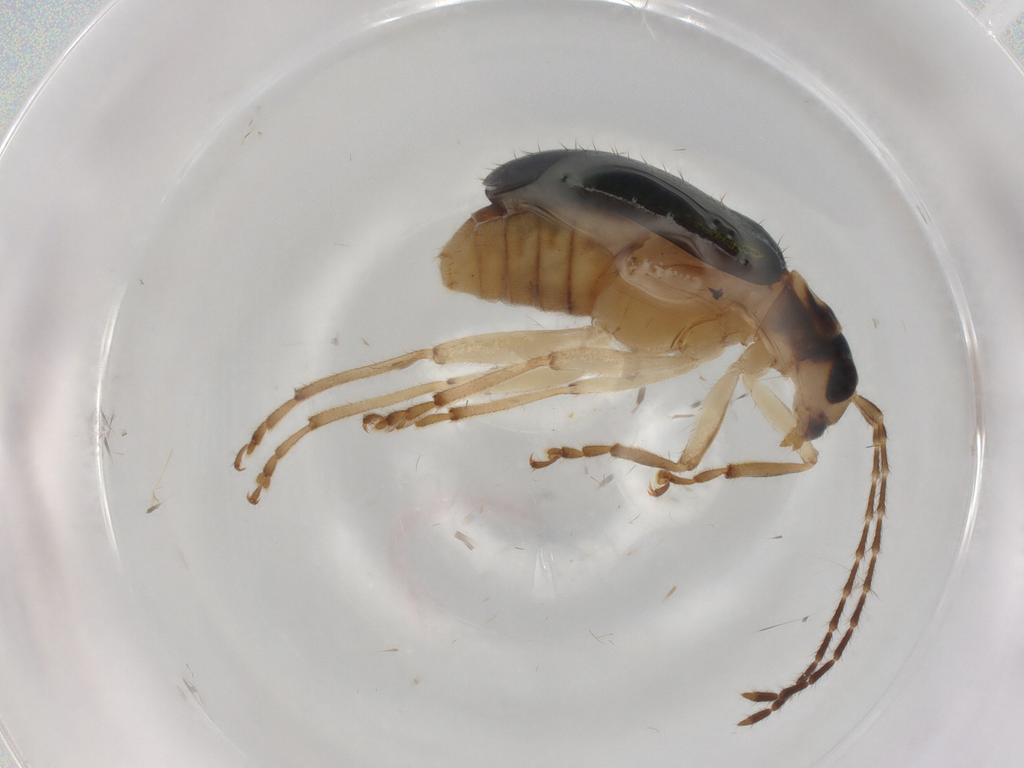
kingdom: Animalia
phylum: Arthropoda
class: Insecta
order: Coleoptera
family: Chrysomelidae
